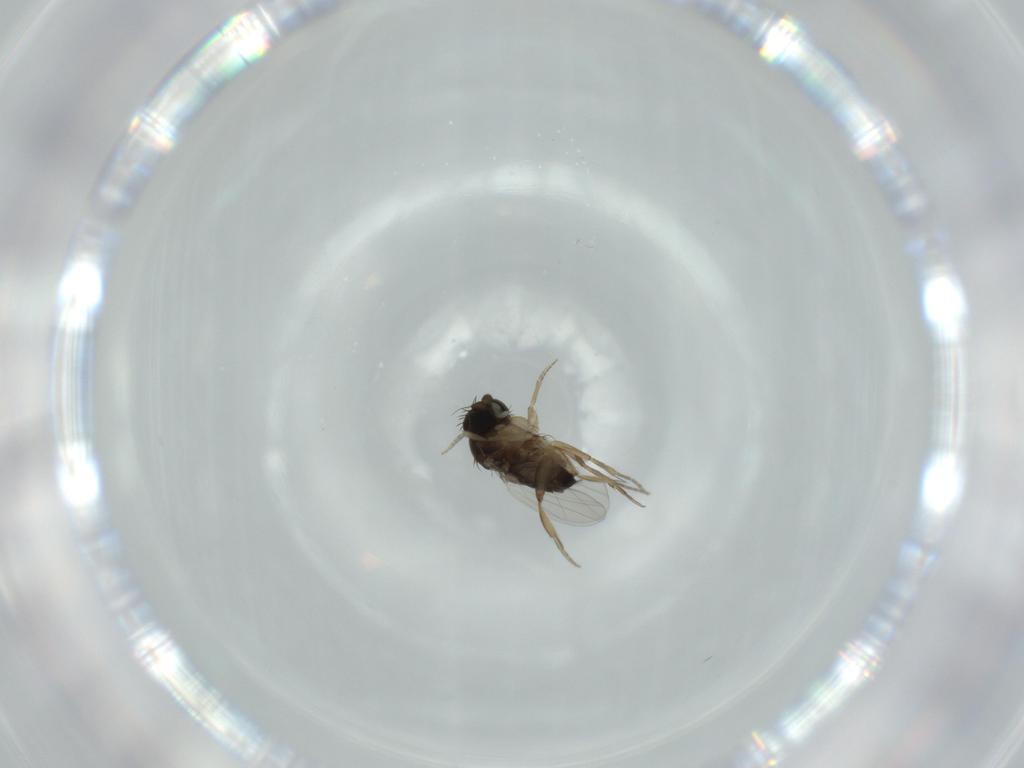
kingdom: Animalia
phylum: Arthropoda
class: Insecta
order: Diptera
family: Phoridae
